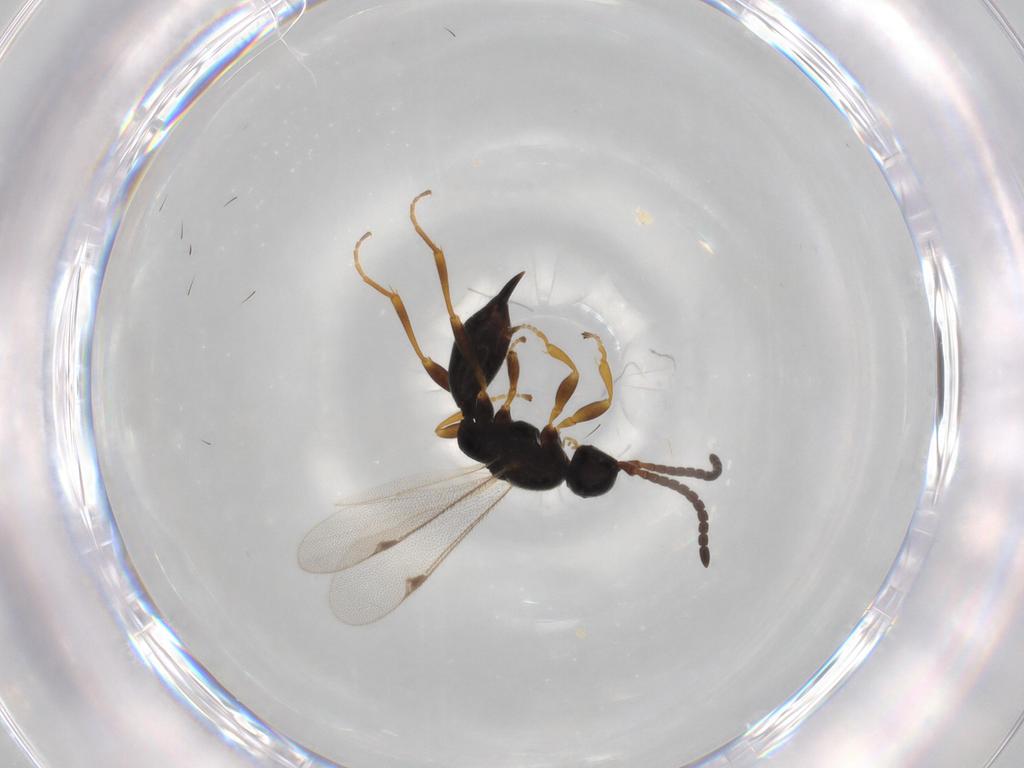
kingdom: Animalia
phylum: Arthropoda
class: Insecta
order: Hymenoptera
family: Proctotrupidae
